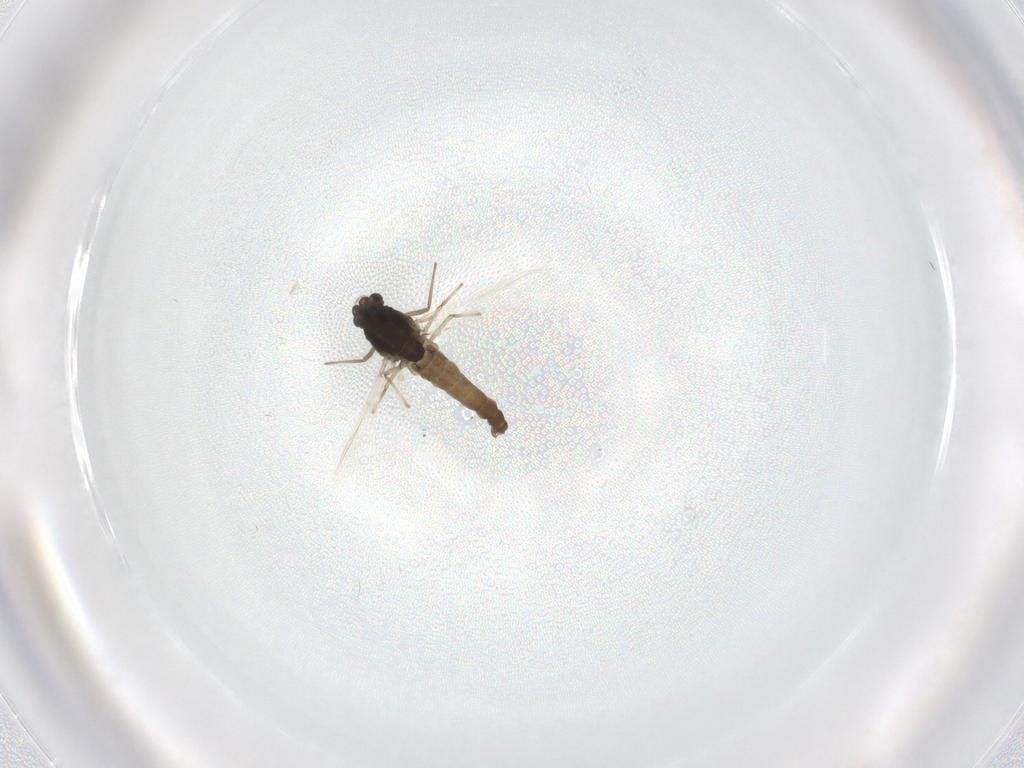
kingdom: Animalia
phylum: Arthropoda
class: Insecta
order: Diptera
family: Chironomidae
